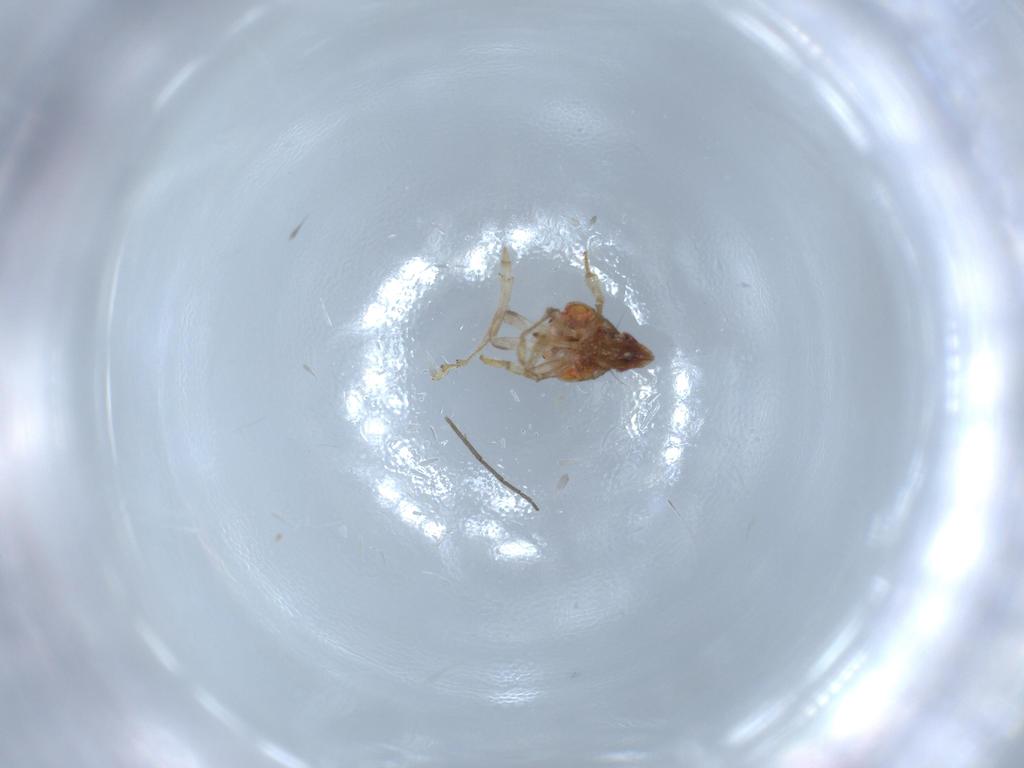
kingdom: Animalia
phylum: Arthropoda
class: Insecta
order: Hemiptera
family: Issidae
